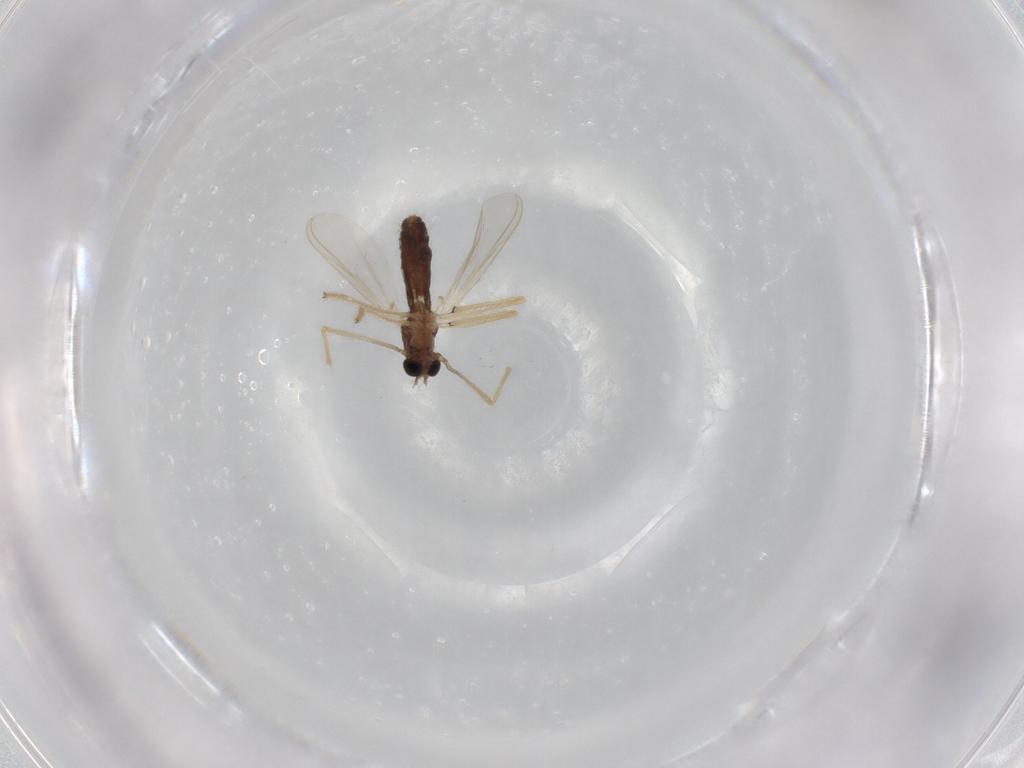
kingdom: Animalia
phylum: Arthropoda
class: Insecta
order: Diptera
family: Chironomidae
